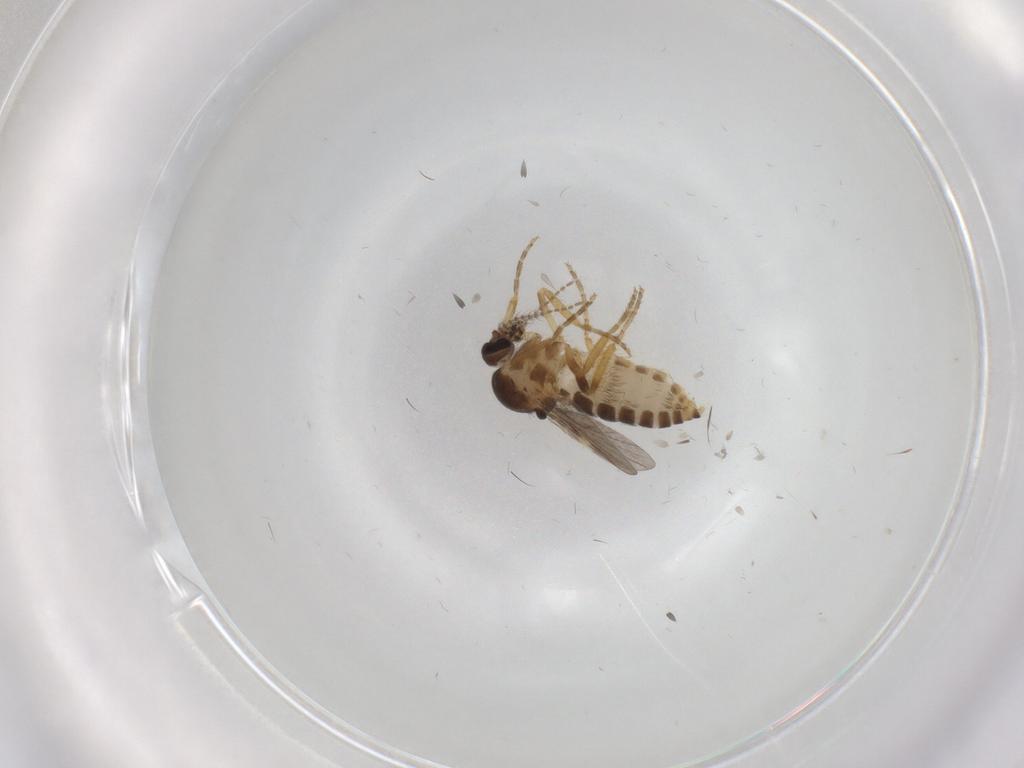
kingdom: Animalia
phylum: Arthropoda
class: Insecta
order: Diptera
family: Ceratopogonidae
